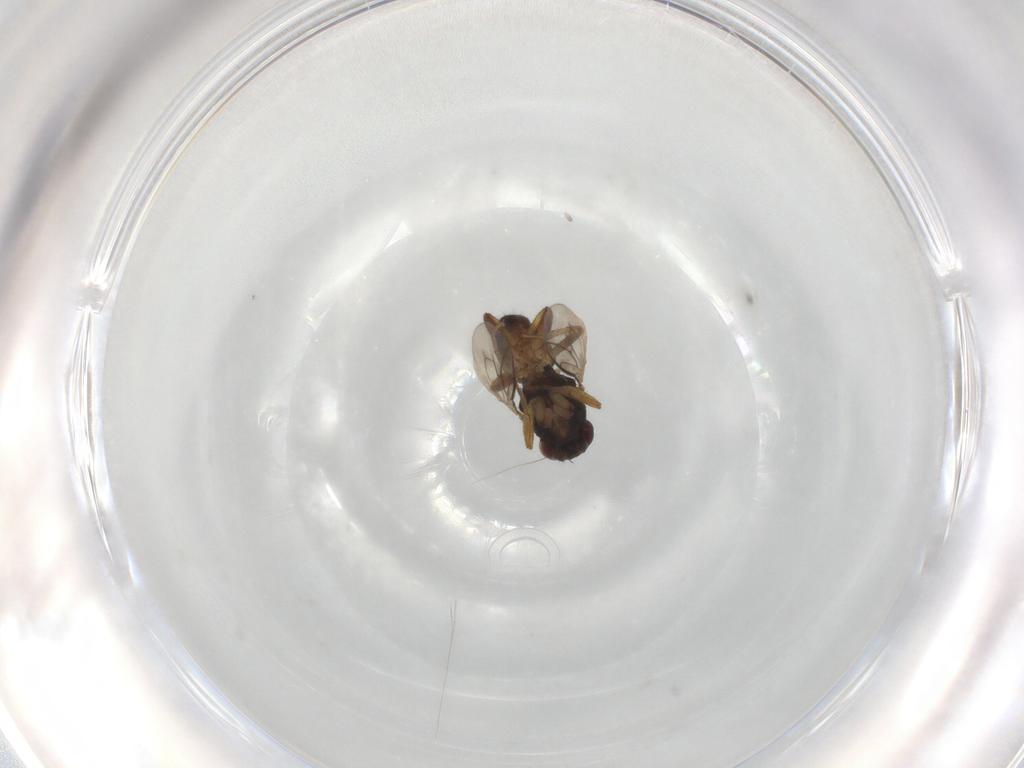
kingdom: Animalia
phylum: Arthropoda
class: Insecta
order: Diptera
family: Sphaeroceridae
